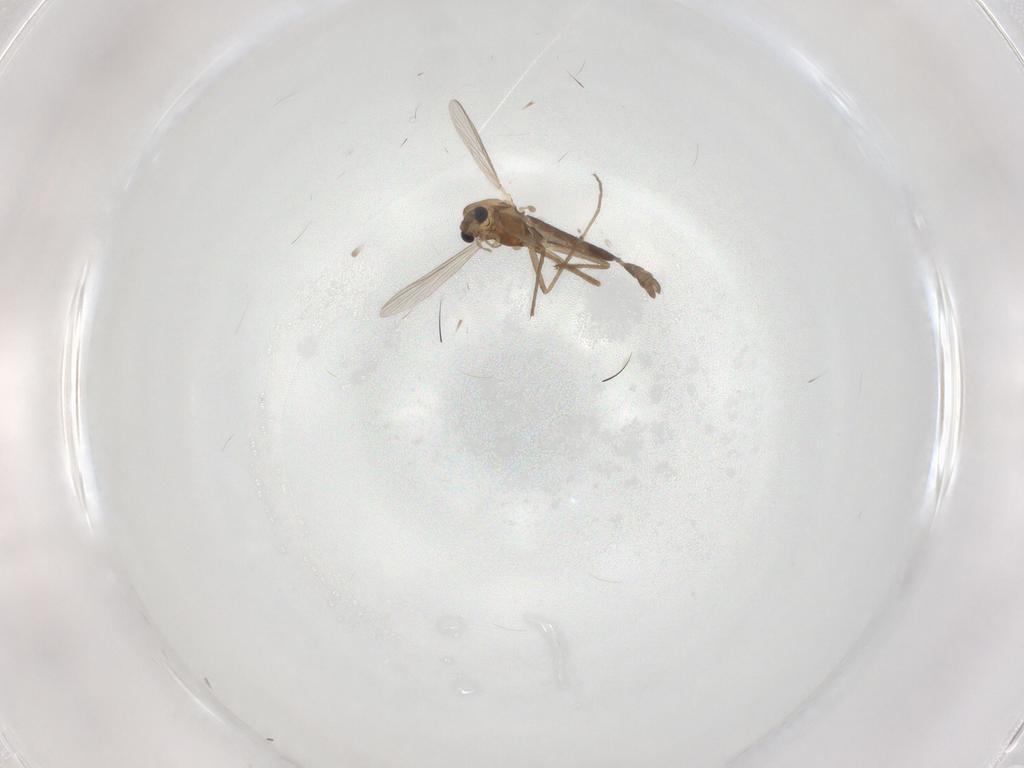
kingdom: Animalia
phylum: Arthropoda
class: Insecta
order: Diptera
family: Chironomidae
